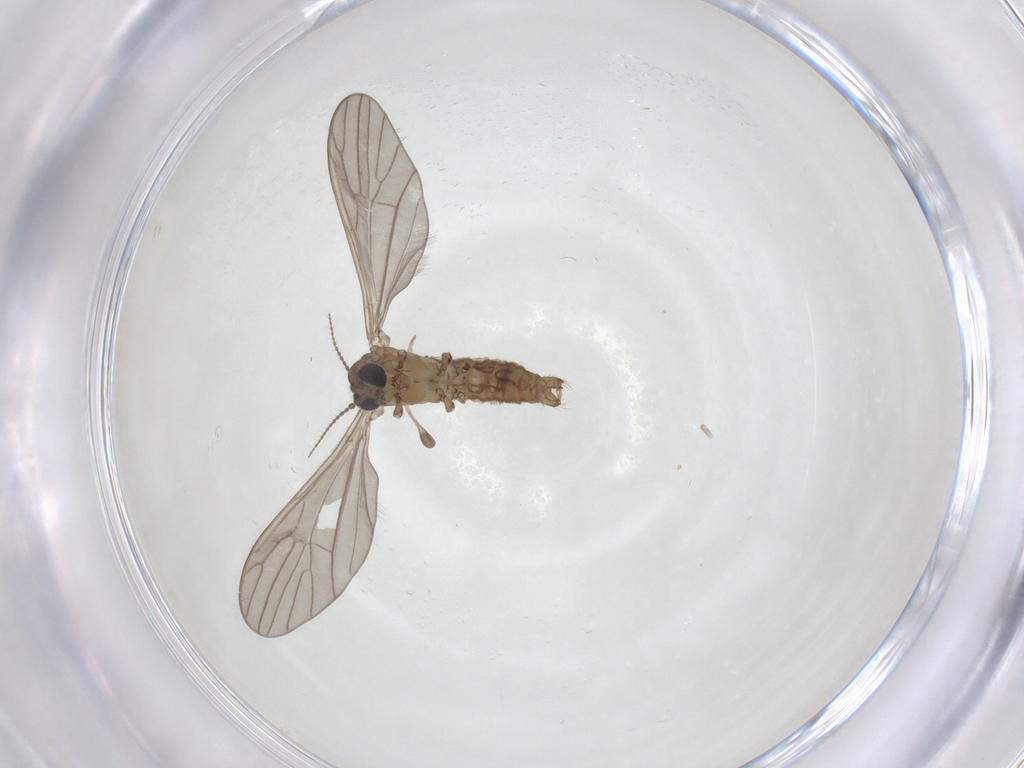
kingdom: Animalia
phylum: Arthropoda
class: Insecta
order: Diptera
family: Limoniidae
